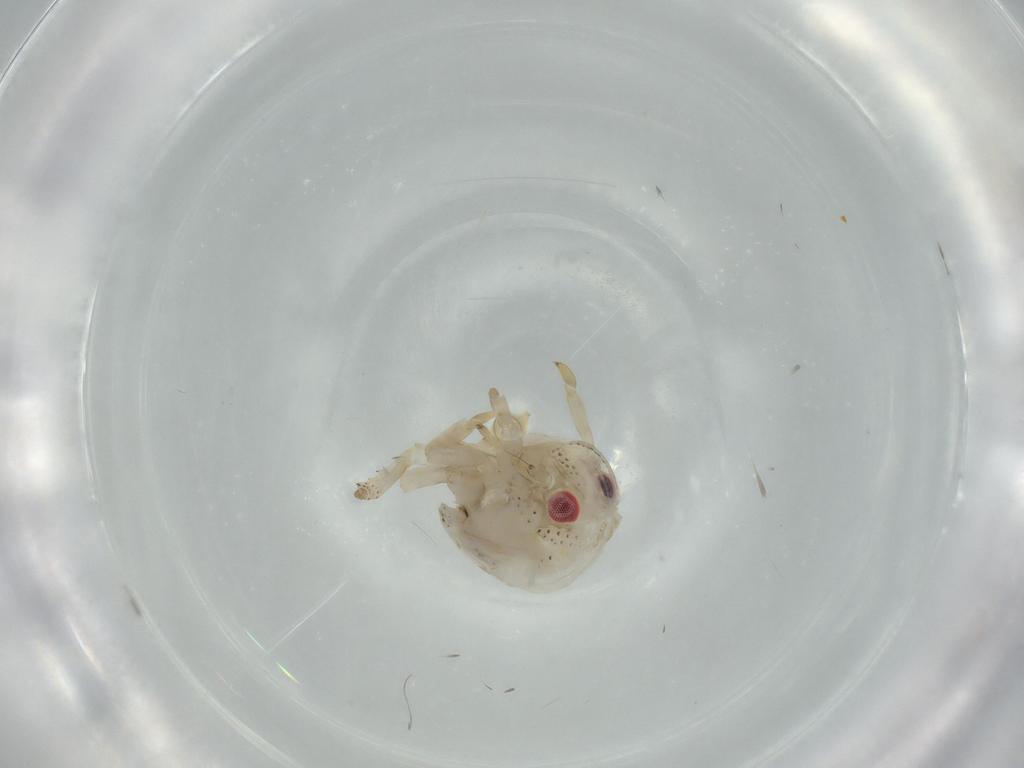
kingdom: Animalia
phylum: Arthropoda
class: Insecta
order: Hemiptera
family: Acanaloniidae
